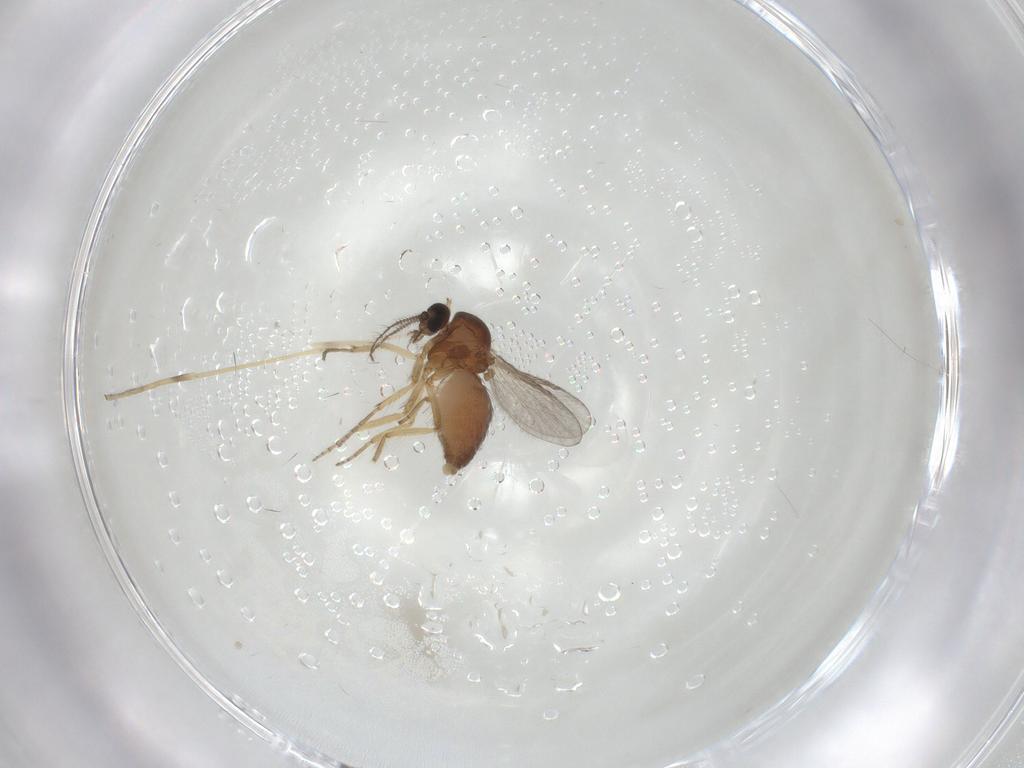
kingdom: Animalia
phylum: Arthropoda
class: Insecta
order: Diptera
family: Ceratopogonidae
